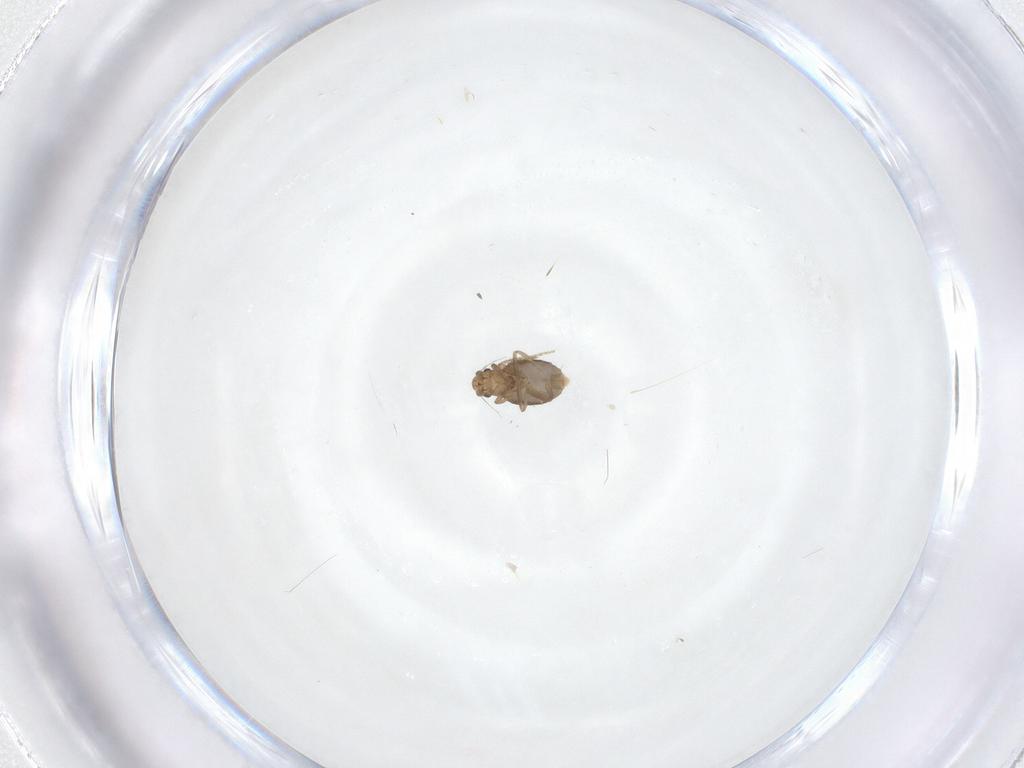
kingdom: Animalia
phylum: Arthropoda
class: Insecta
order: Diptera
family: Phoridae
